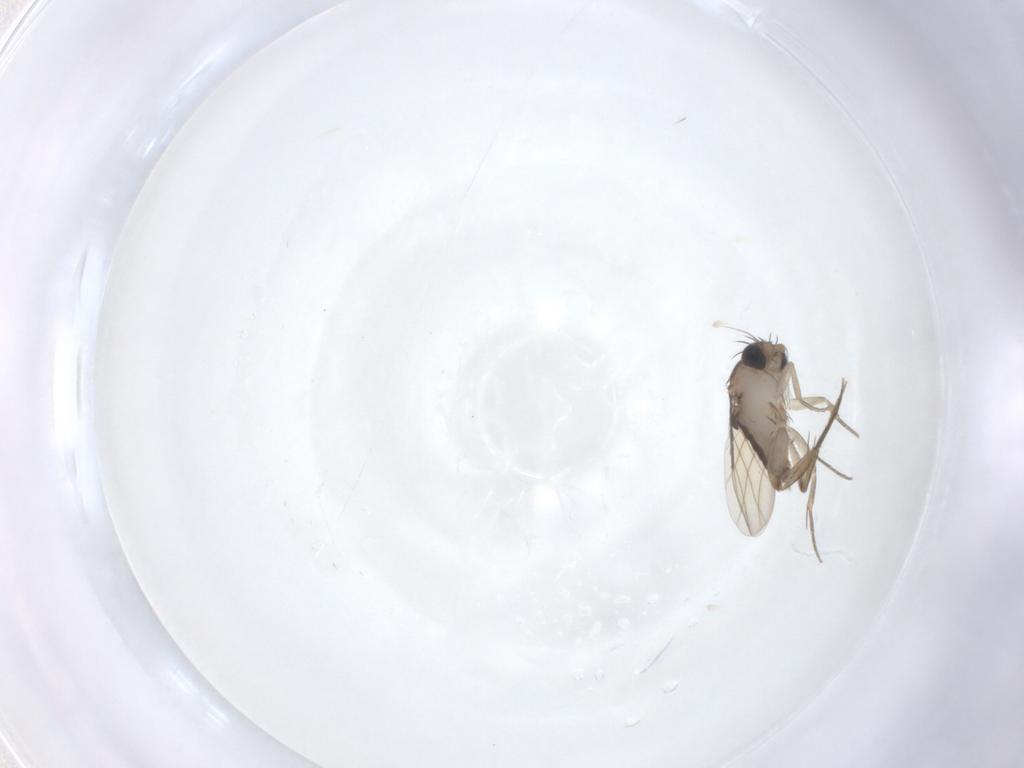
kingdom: Animalia
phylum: Arthropoda
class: Insecta
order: Diptera
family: Phoridae
